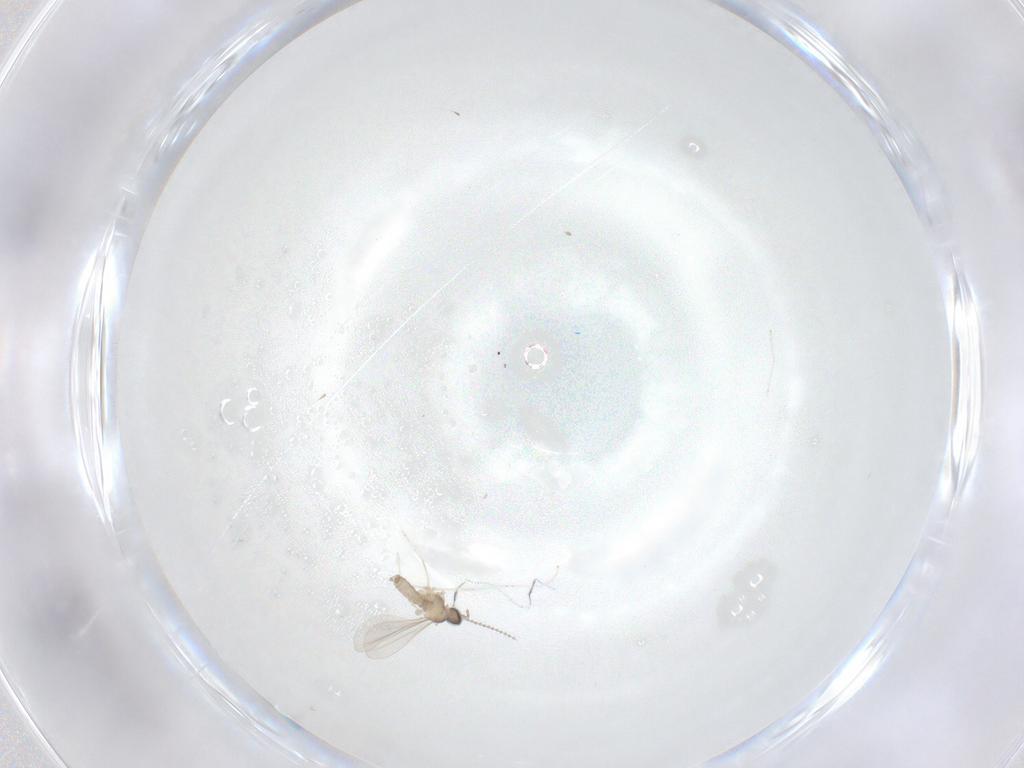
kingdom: Animalia
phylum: Arthropoda
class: Insecta
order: Diptera
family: Cecidomyiidae
